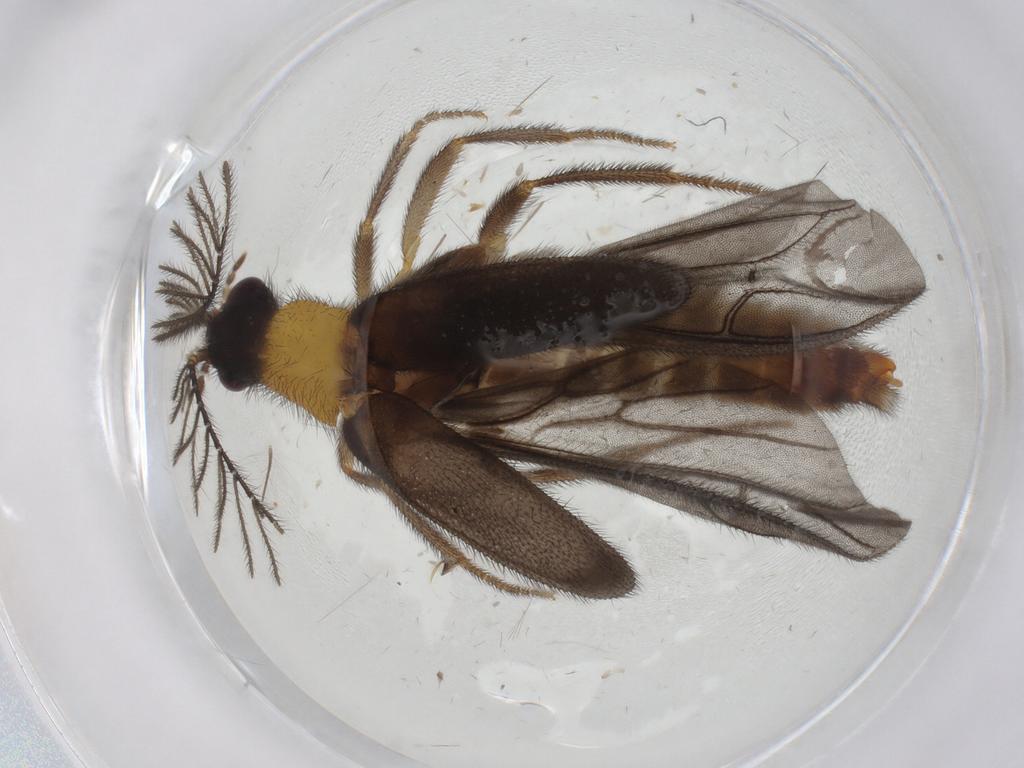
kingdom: Animalia
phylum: Arthropoda
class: Insecta
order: Coleoptera
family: Phengodidae
